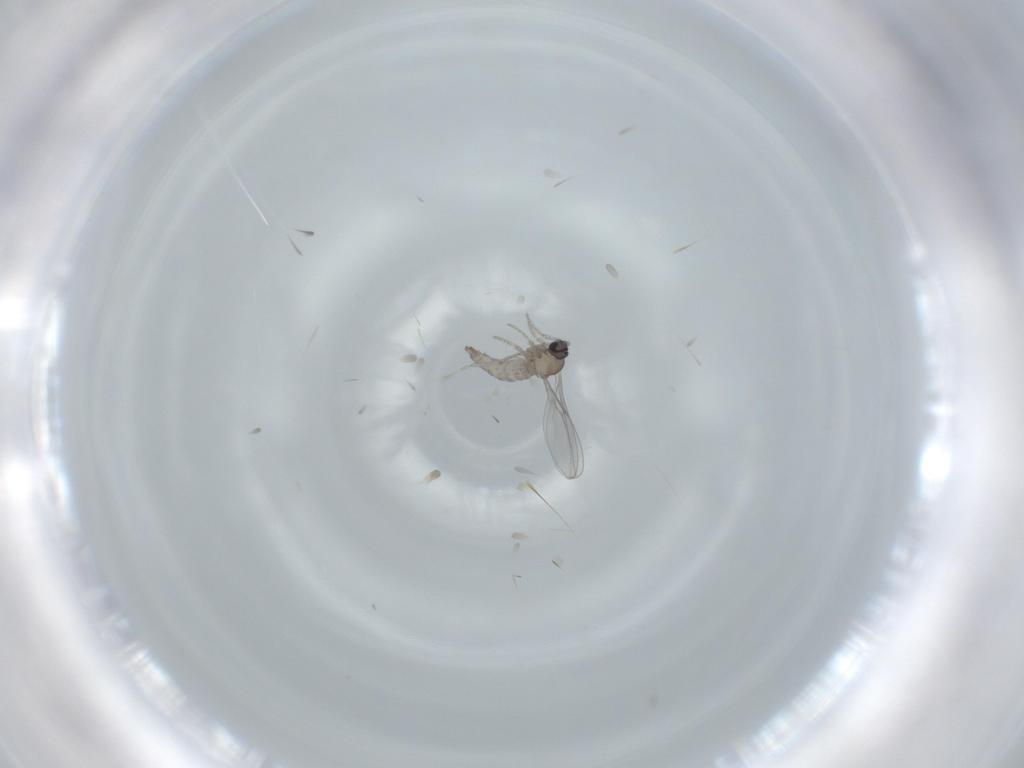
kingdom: Animalia
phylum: Arthropoda
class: Insecta
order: Diptera
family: Cecidomyiidae
